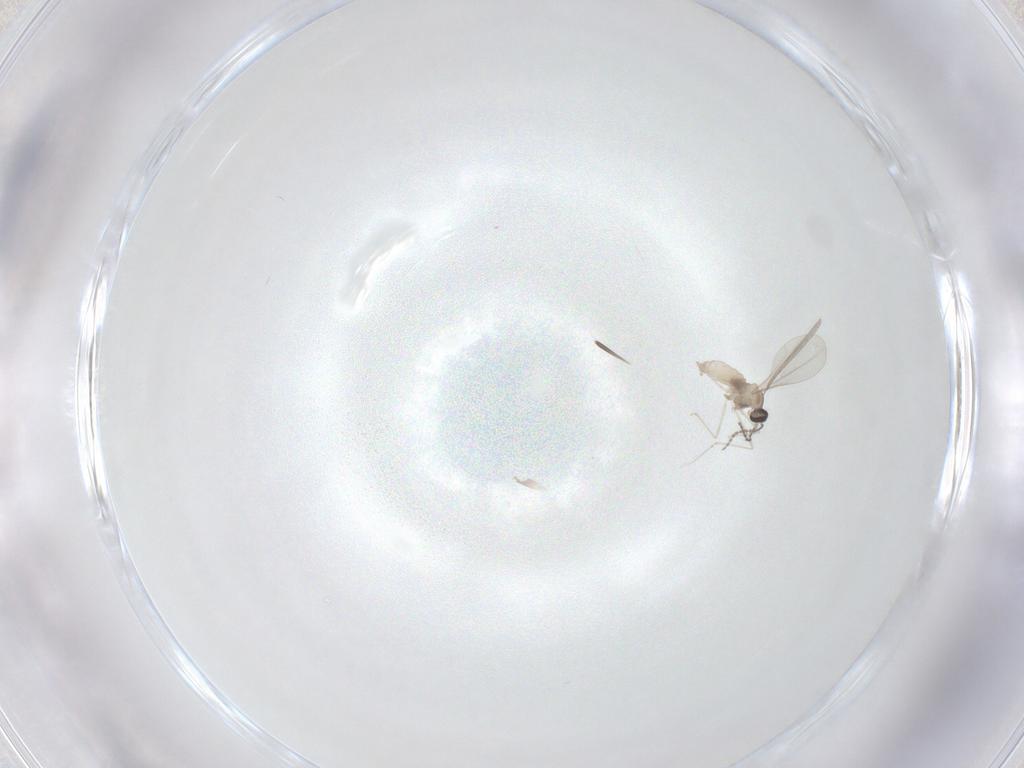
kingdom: Animalia
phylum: Arthropoda
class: Insecta
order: Diptera
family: Cecidomyiidae
